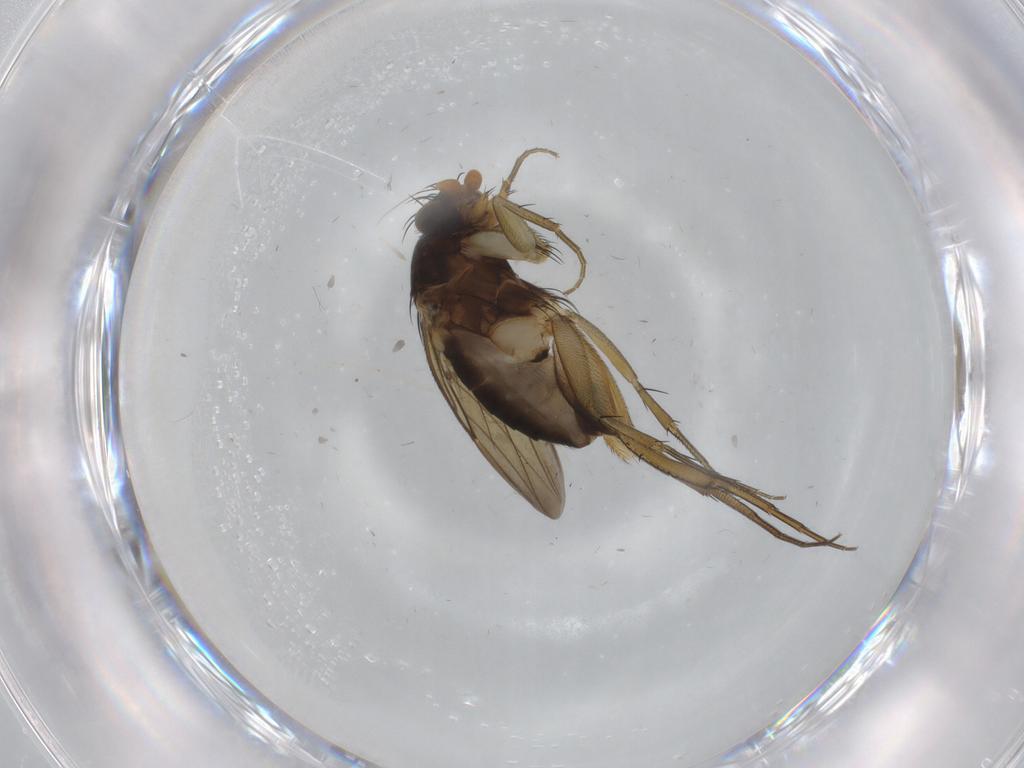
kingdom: Animalia
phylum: Arthropoda
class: Insecta
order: Diptera
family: Phoridae
